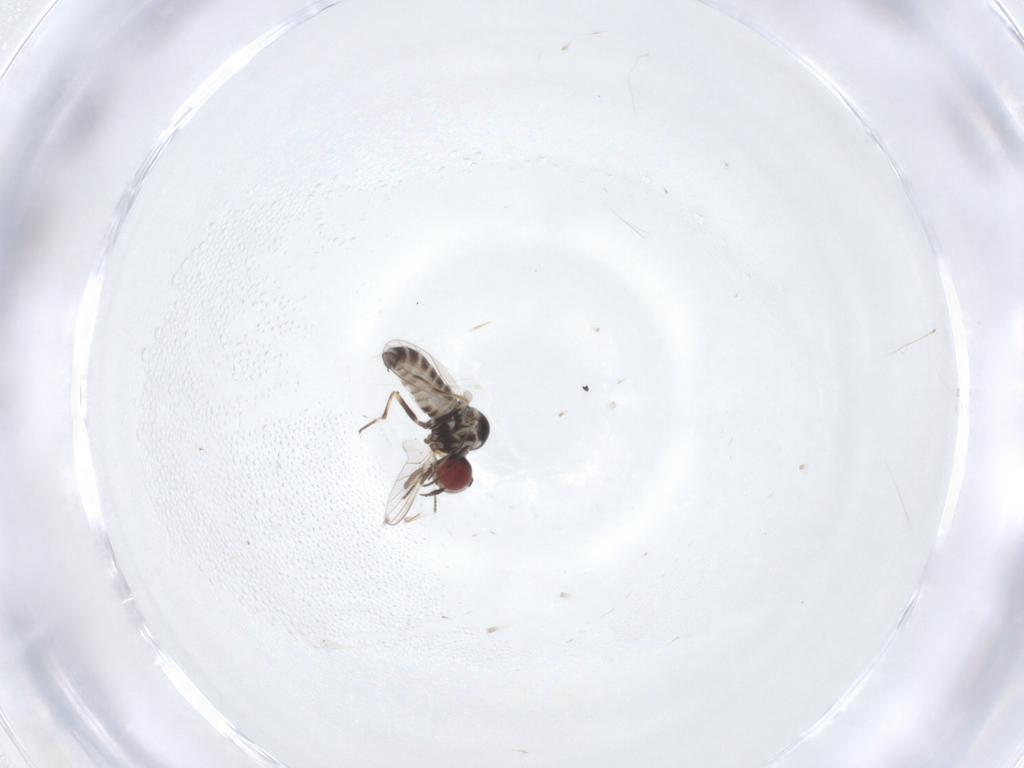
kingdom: Animalia
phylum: Arthropoda
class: Insecta
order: Diptera
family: Mythicomyiidae
